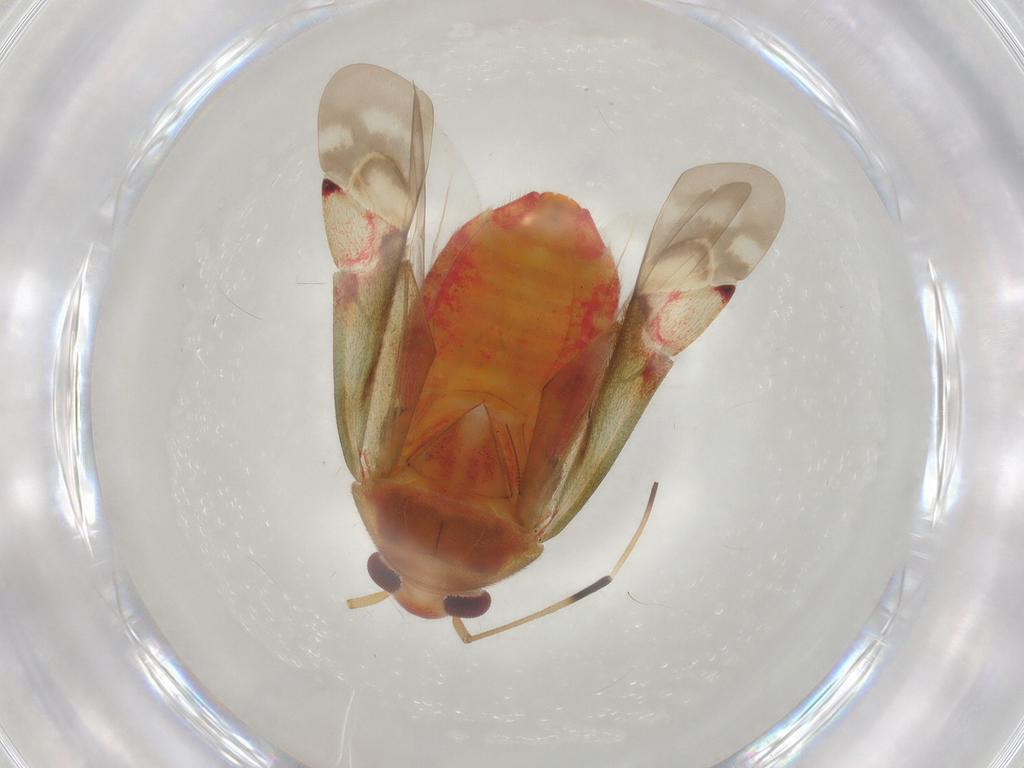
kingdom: Animalia
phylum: Arthropoda
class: Insecta
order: Hemiptera
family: Miridae
